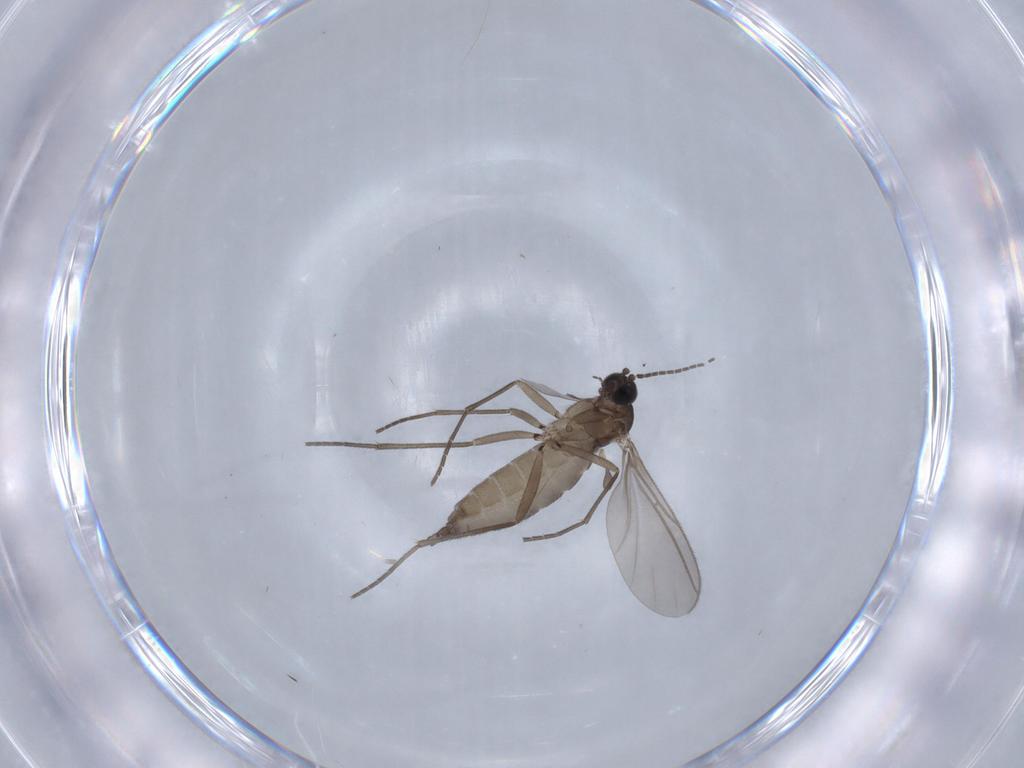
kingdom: Animalia
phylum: Arthropoda
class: Insecta
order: Diptera
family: Sciaridae
